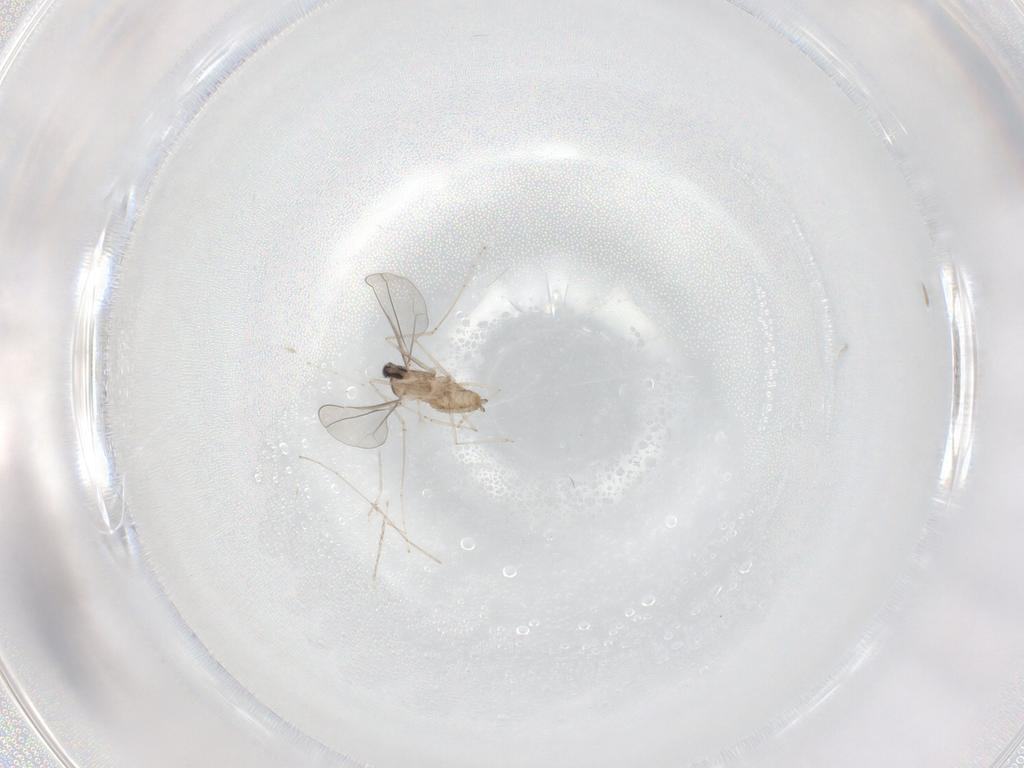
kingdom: Animalia
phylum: Arthropoda
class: Insecta
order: Diptera
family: Cecidomyiidae
